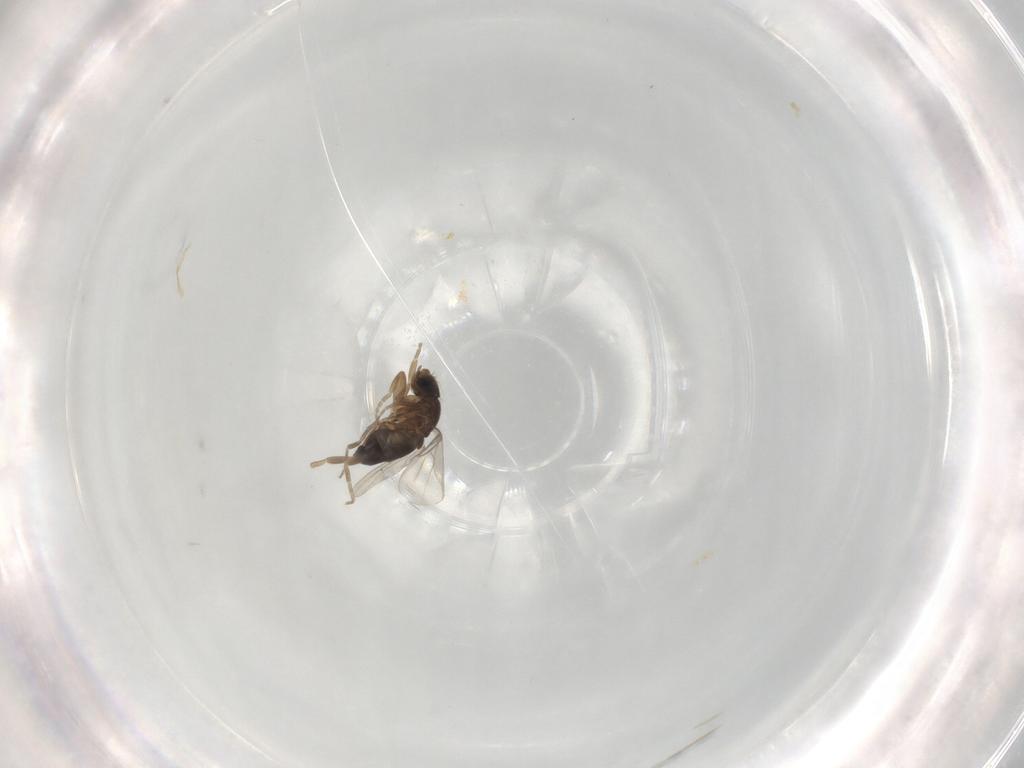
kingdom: Animalia
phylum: Arthropoda
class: Insecta
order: Diptera
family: Phoridae
